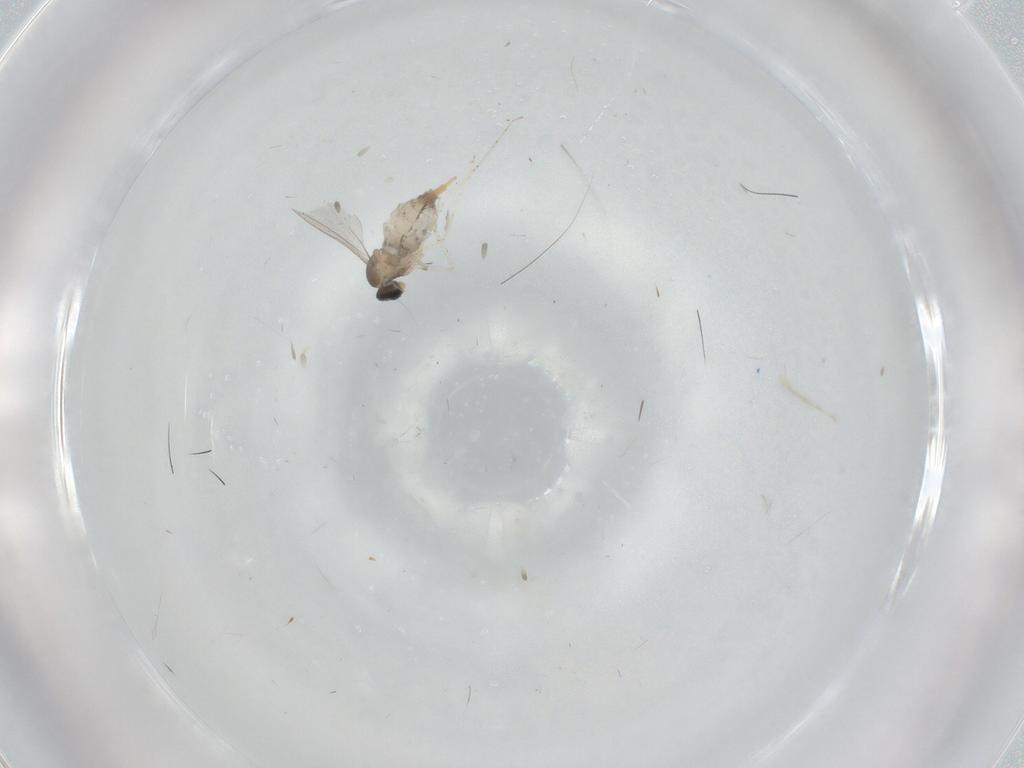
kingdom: Animalia
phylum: Arthropoda
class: Insecta
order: Diptera
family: Cecidomyiidae
